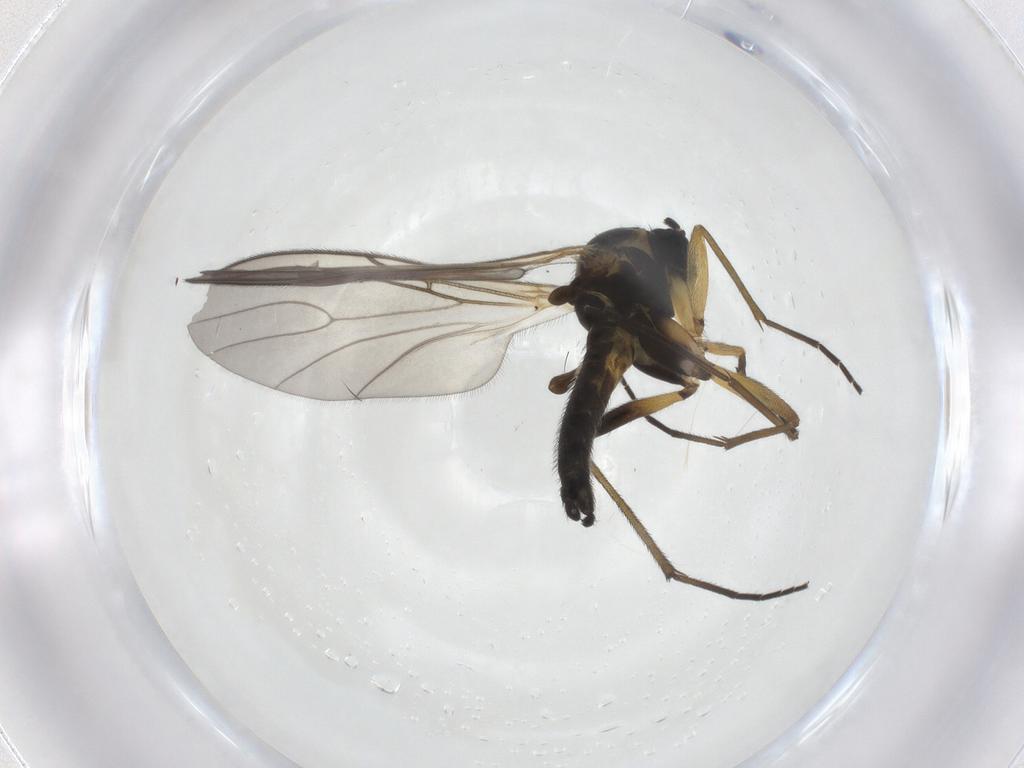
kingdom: Animalia
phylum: Arthropoda
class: Insecta
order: Diptera
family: Sciaridae
